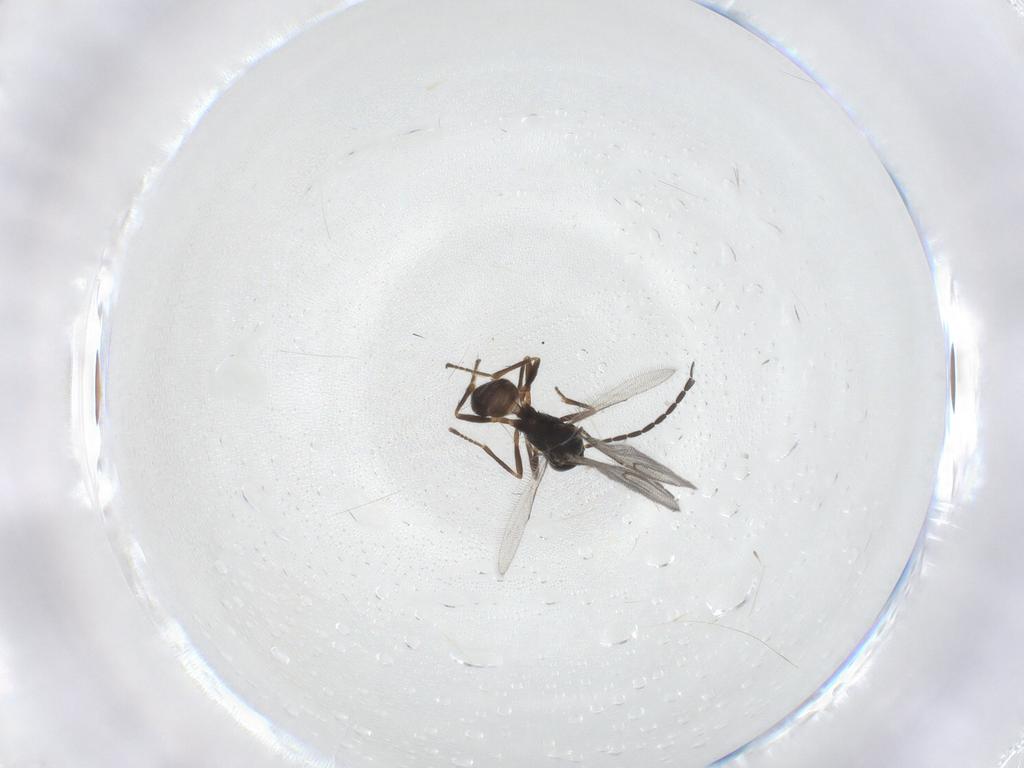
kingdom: Animalia
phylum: Arthropoda
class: Insecta
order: Hymenoptera
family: Braconidae
